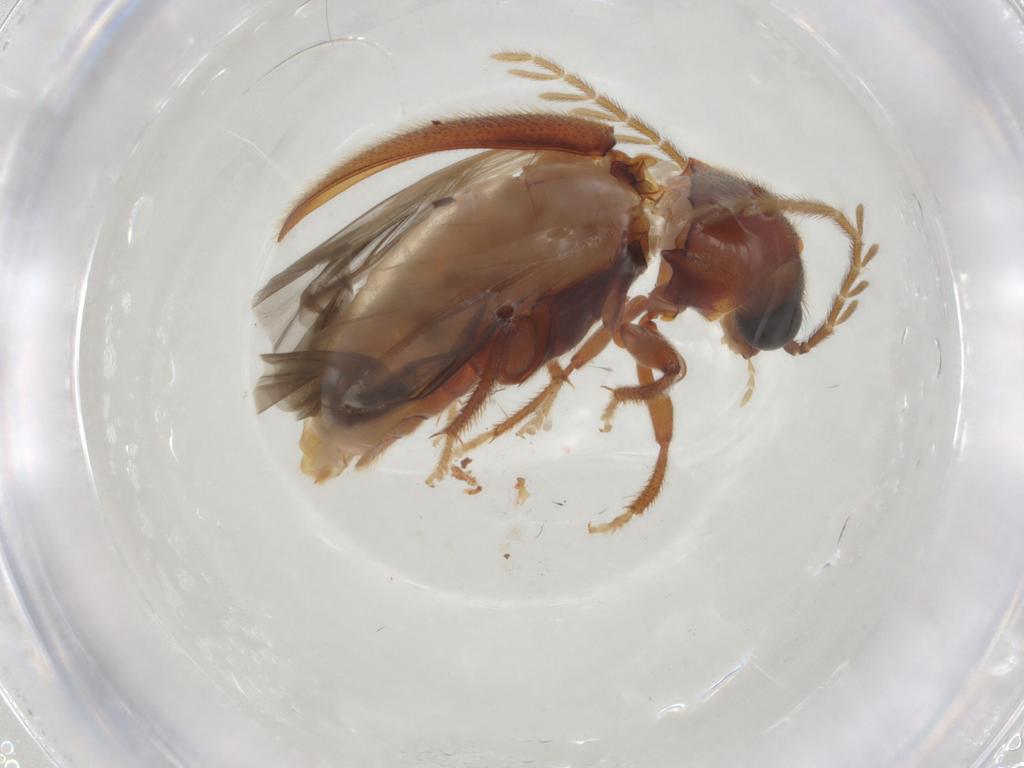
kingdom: Animalia
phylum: Arthropoda
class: Insecta
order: Coleoptera
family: Ptilodactylidae
